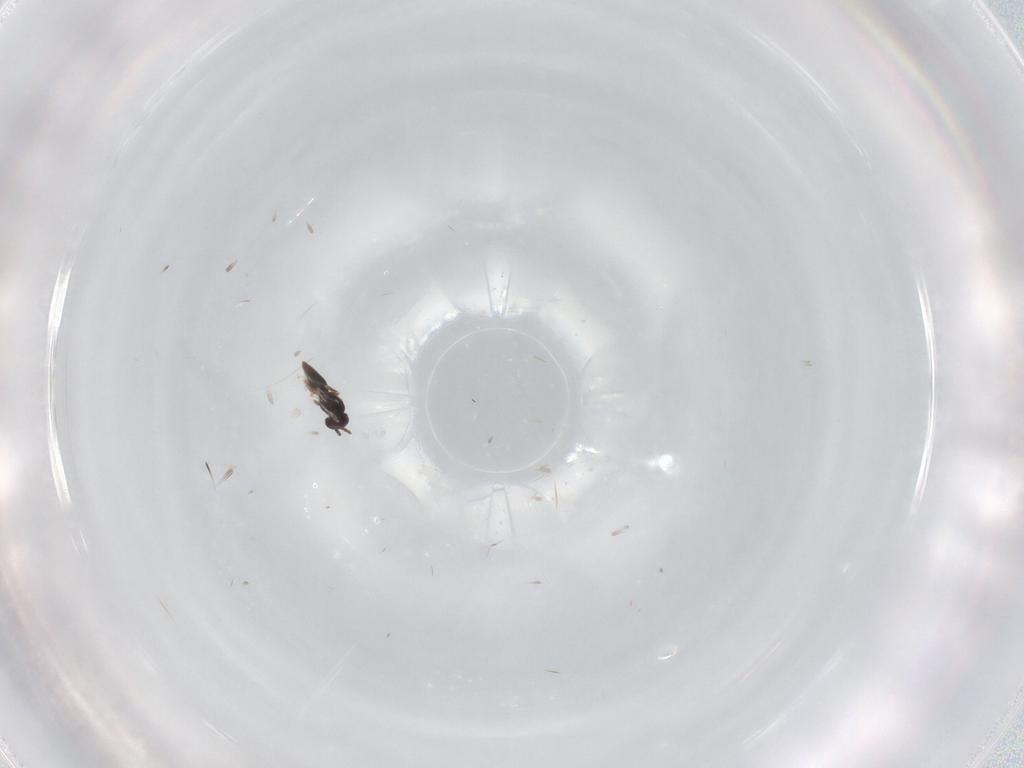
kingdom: Animalia
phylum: Arthropoda
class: Insecta
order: Hymenoptera
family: Scelionidae
